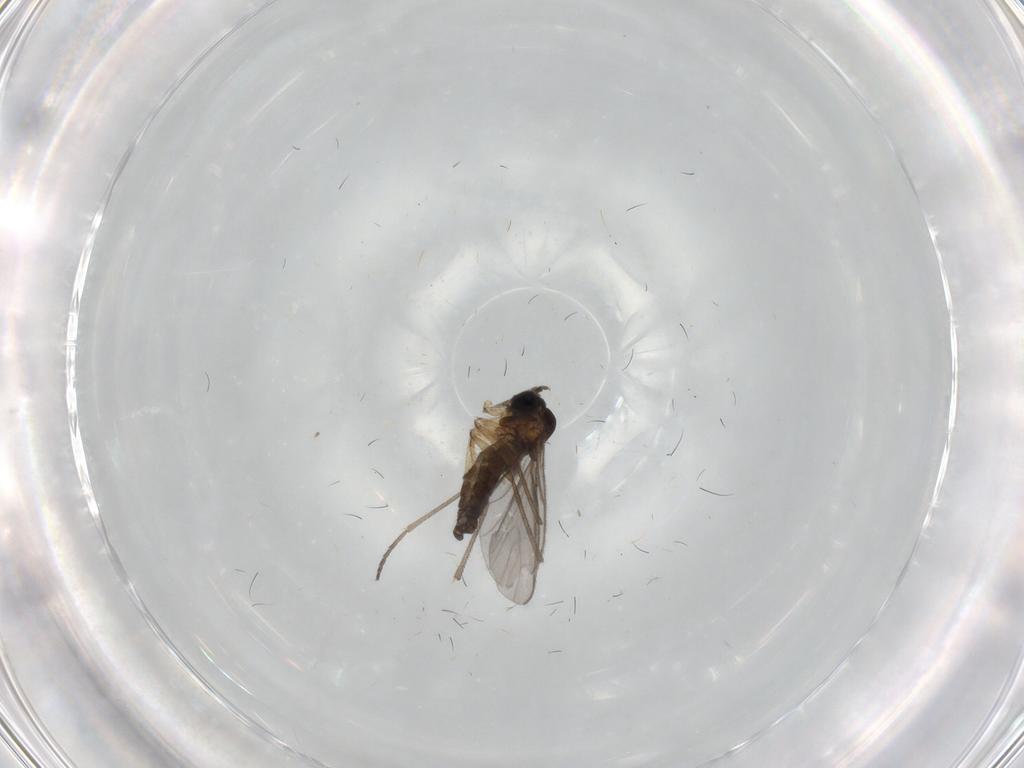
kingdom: Animalia
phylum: Arthropoda
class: Insecta
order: Diptera
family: Sciaridae
